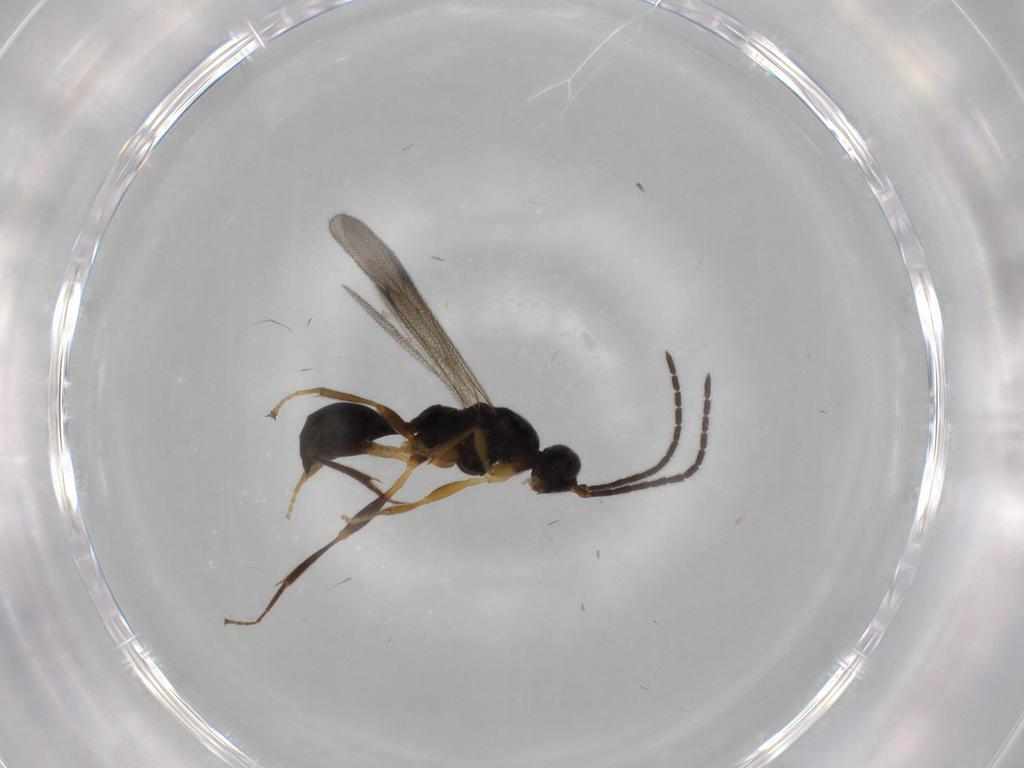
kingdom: Animalia
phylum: Arthropoda
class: Insecta
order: Hymenoptera
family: Proctotrupidae
